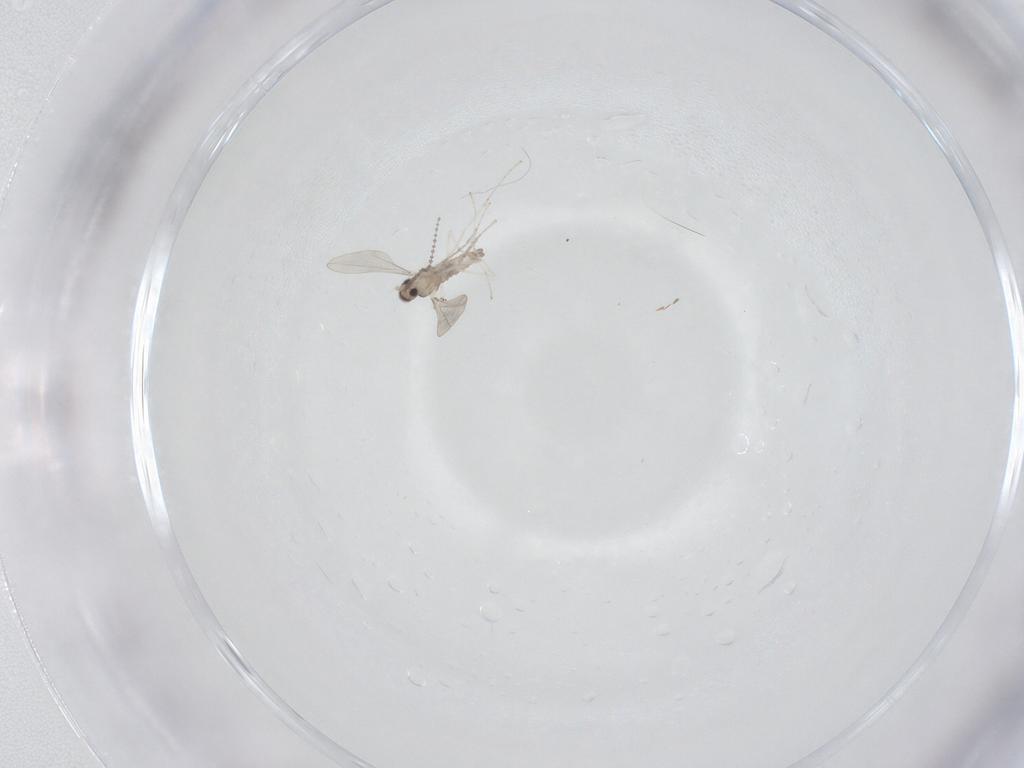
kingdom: Animalia
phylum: Arthropoda
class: Insecta
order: Diptera
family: Cecidomyiidae
